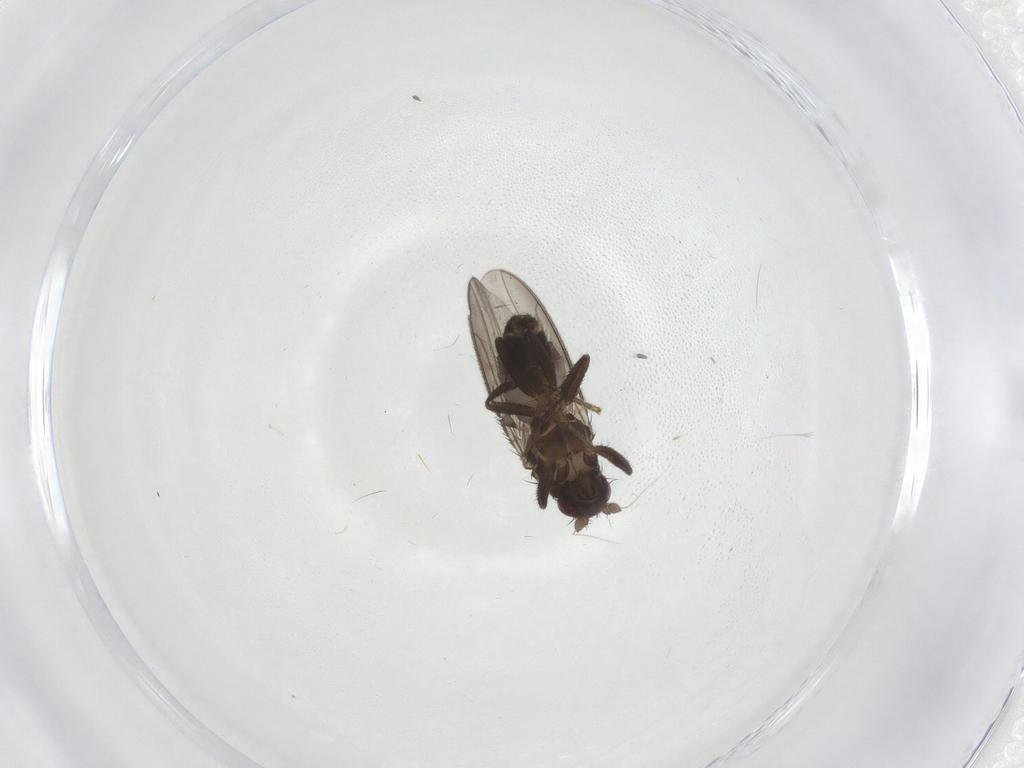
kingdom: Animalia
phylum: Arthropoda
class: Insecta
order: Diptera
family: Sphaeroceridae
